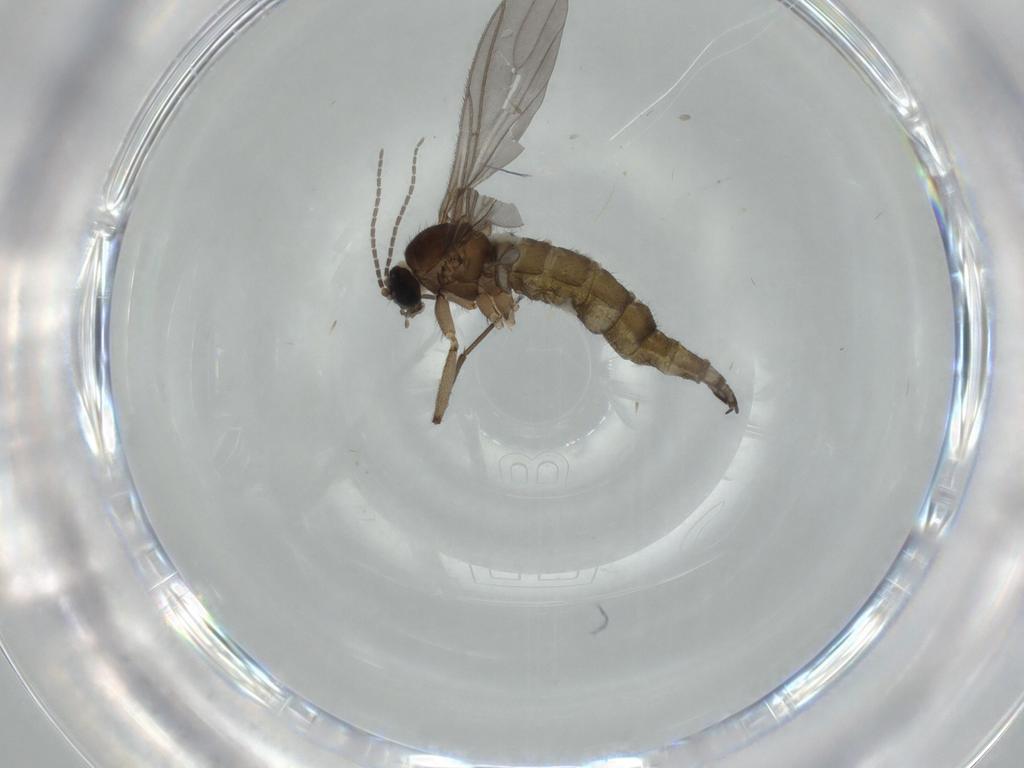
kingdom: Animalia
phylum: Arthropoda
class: Insecta
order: Diptera
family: Sciaridae
